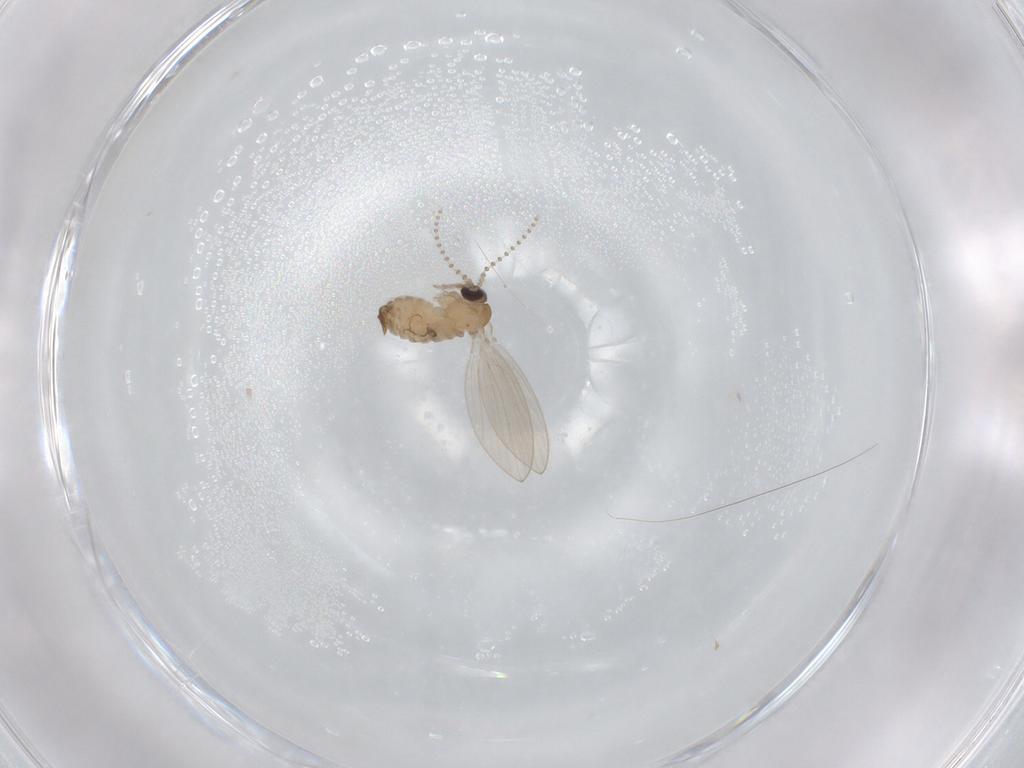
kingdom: Animalia
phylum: Arthropoda
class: Insecta
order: Diptera
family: Psychodidae
